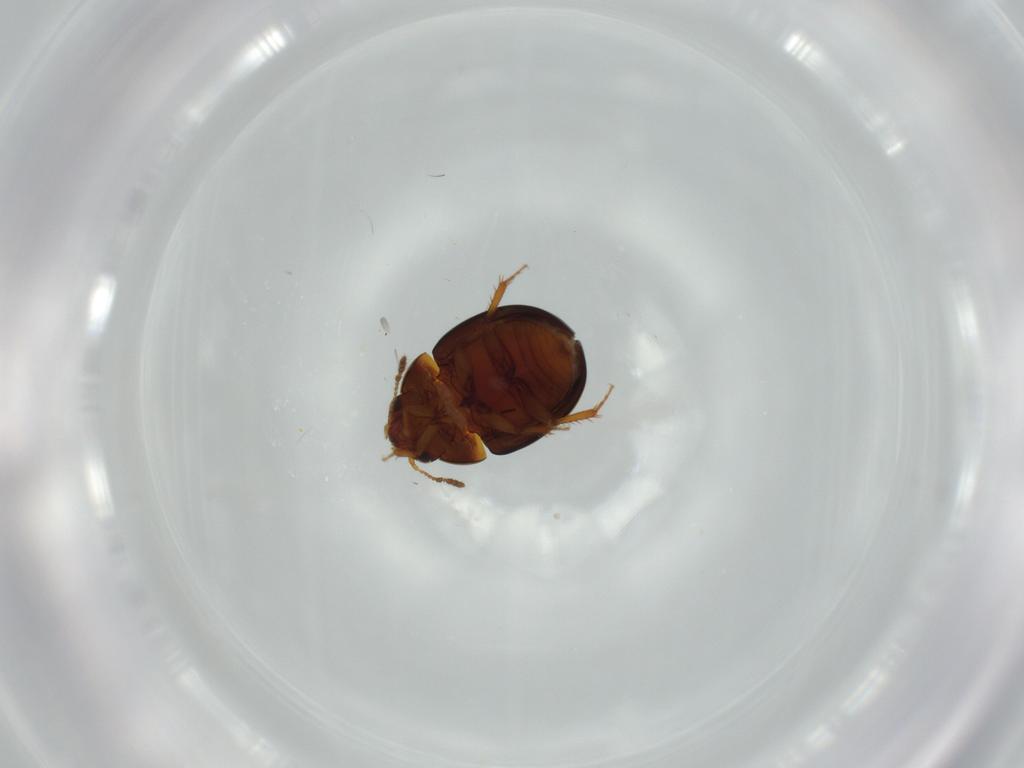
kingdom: Animalia
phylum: Arthropoda
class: Insecta
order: Coleoptera
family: Leiodidae
